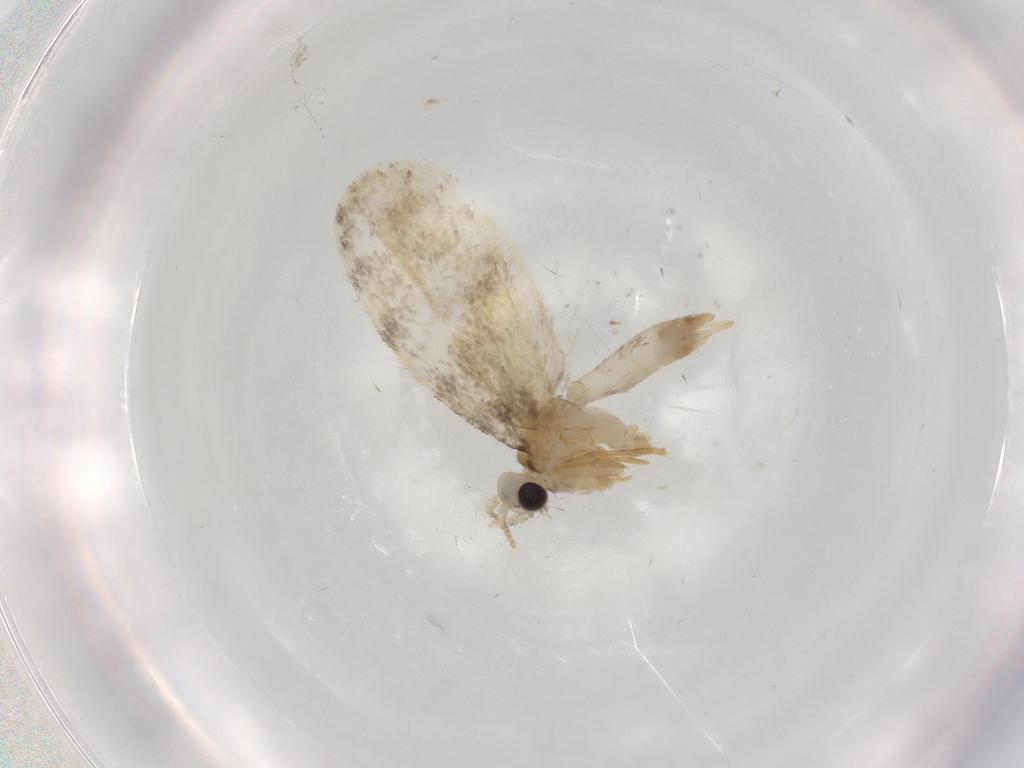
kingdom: Animalia
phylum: Arthropoda
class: Insecta
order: Lepidoptera
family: Psychidae
